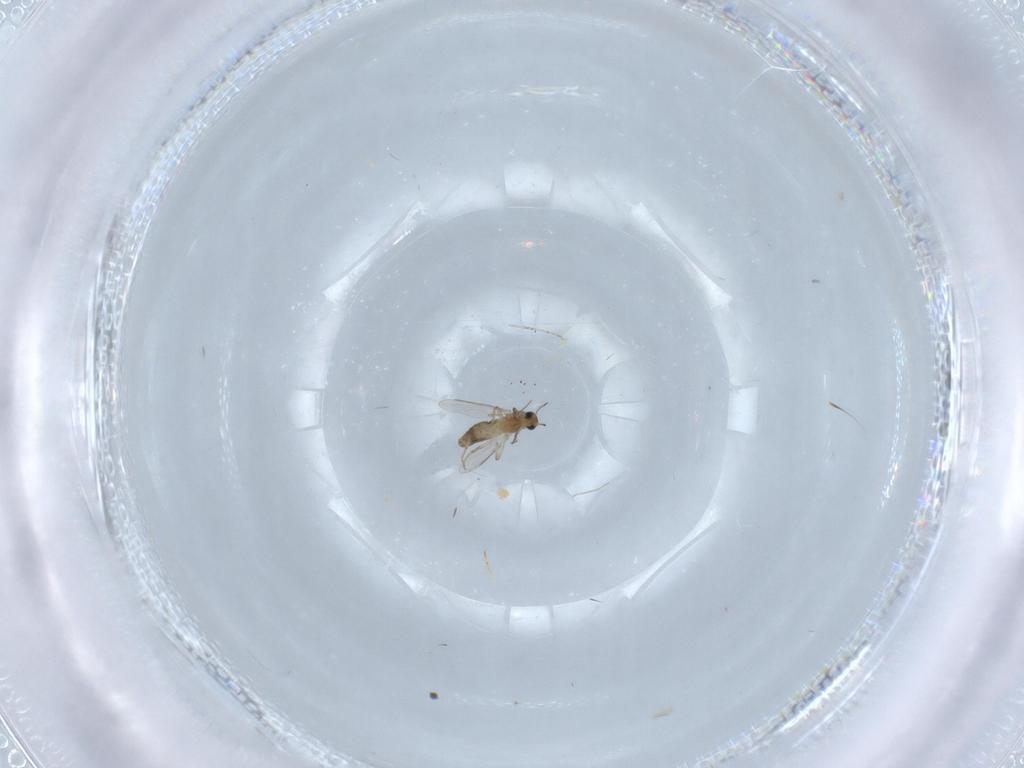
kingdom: Animalia
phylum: Arthropoda
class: Insecta
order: Diptera
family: Chironomidae
